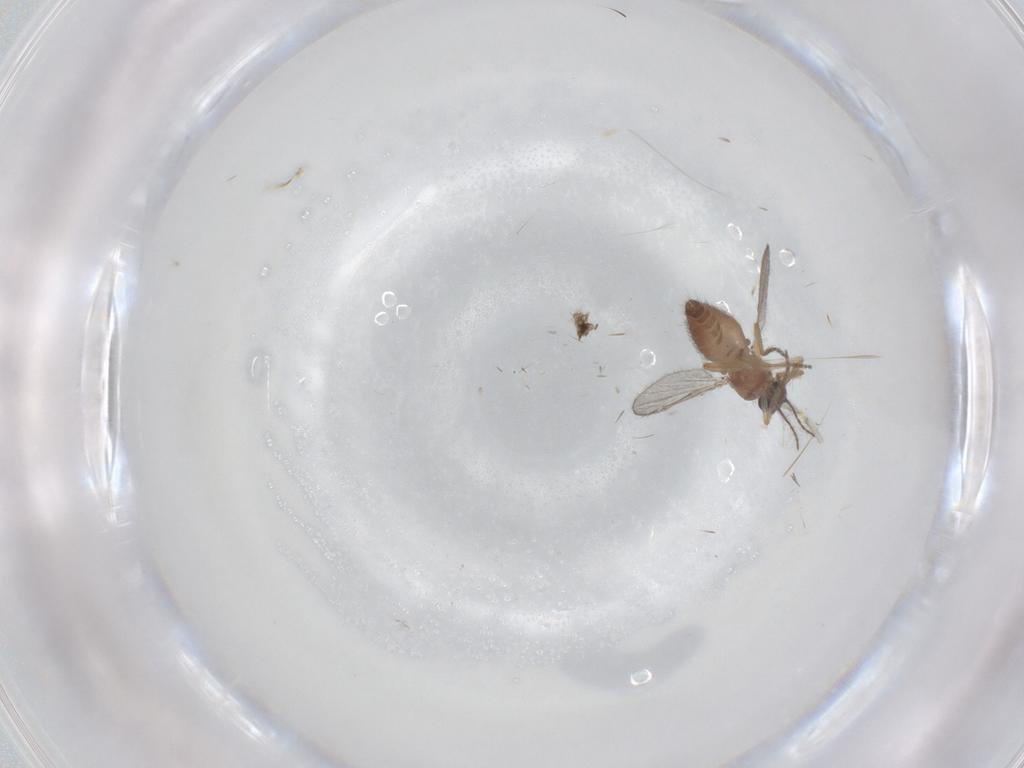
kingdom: Animalia
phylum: Arthropoda
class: Insecta
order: Diptera
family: Ceratopogonidae
